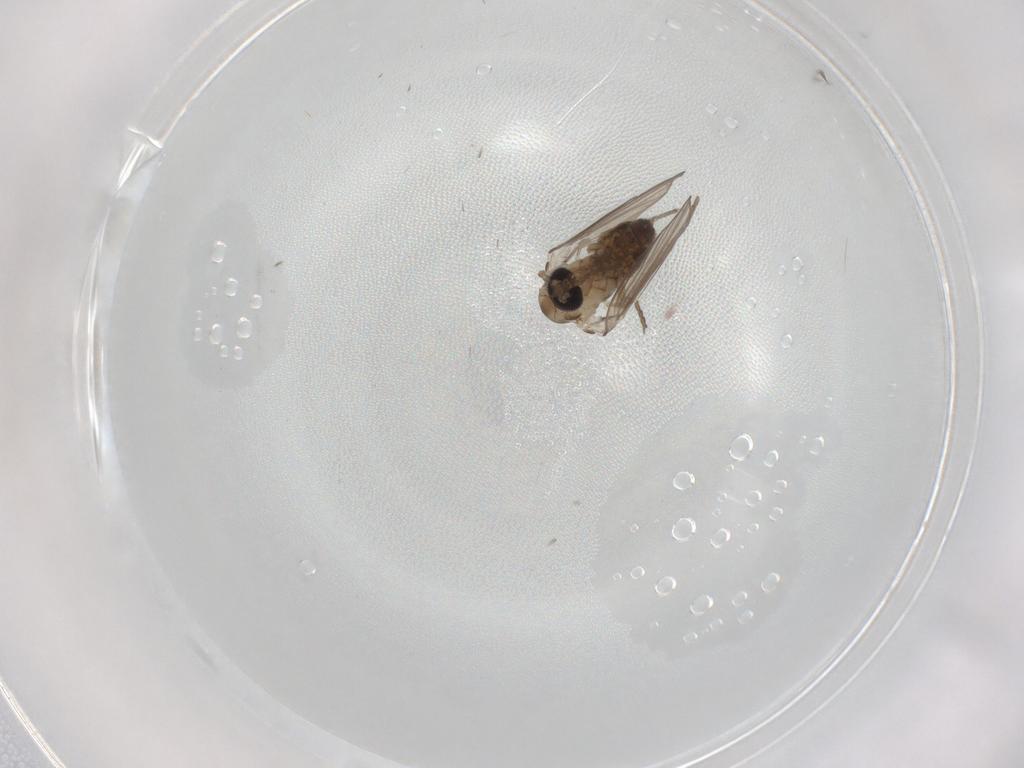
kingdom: Animalia
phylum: Arthropoda
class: Insecta
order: Diptera
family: Psychodidae
